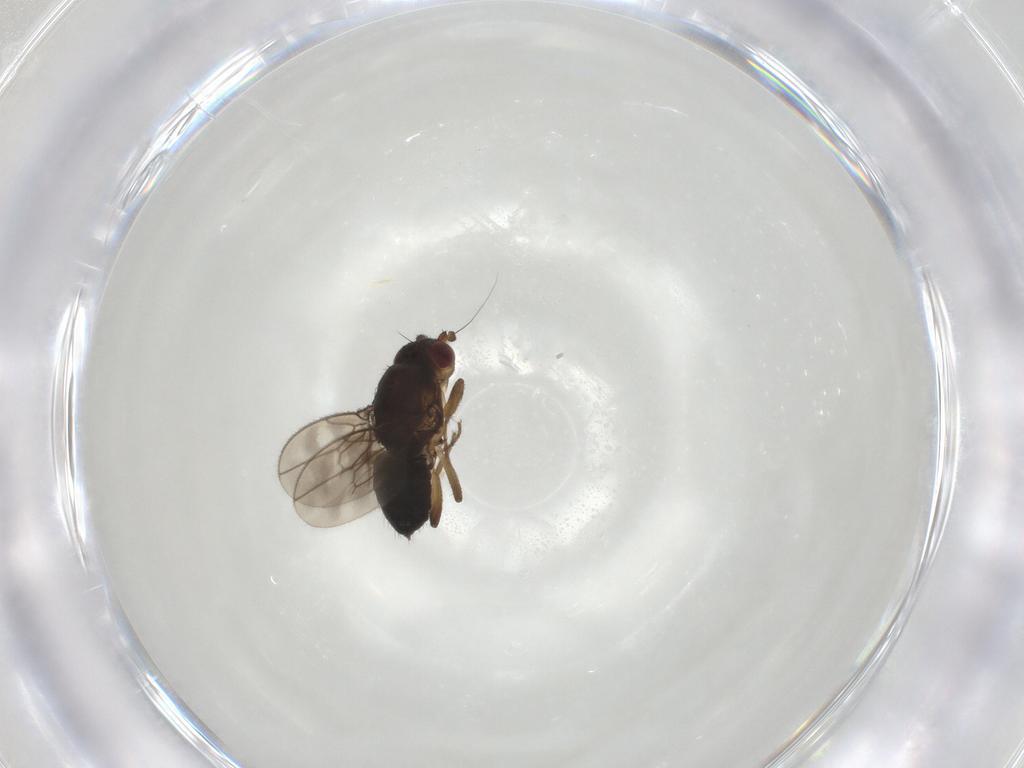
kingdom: Animalia
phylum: Arthropoda
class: Insecta
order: Diptera
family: Sphaeroceridae
